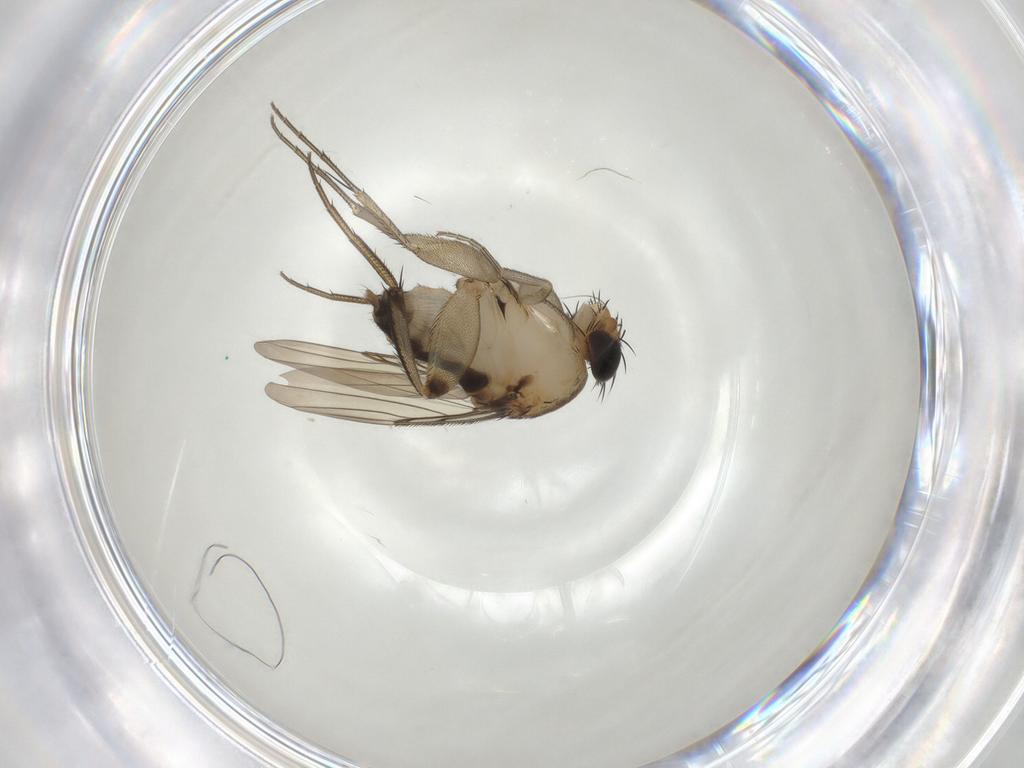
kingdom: Animalia
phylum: Arthropoda
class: Insecta
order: Diptera
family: Phoridae
